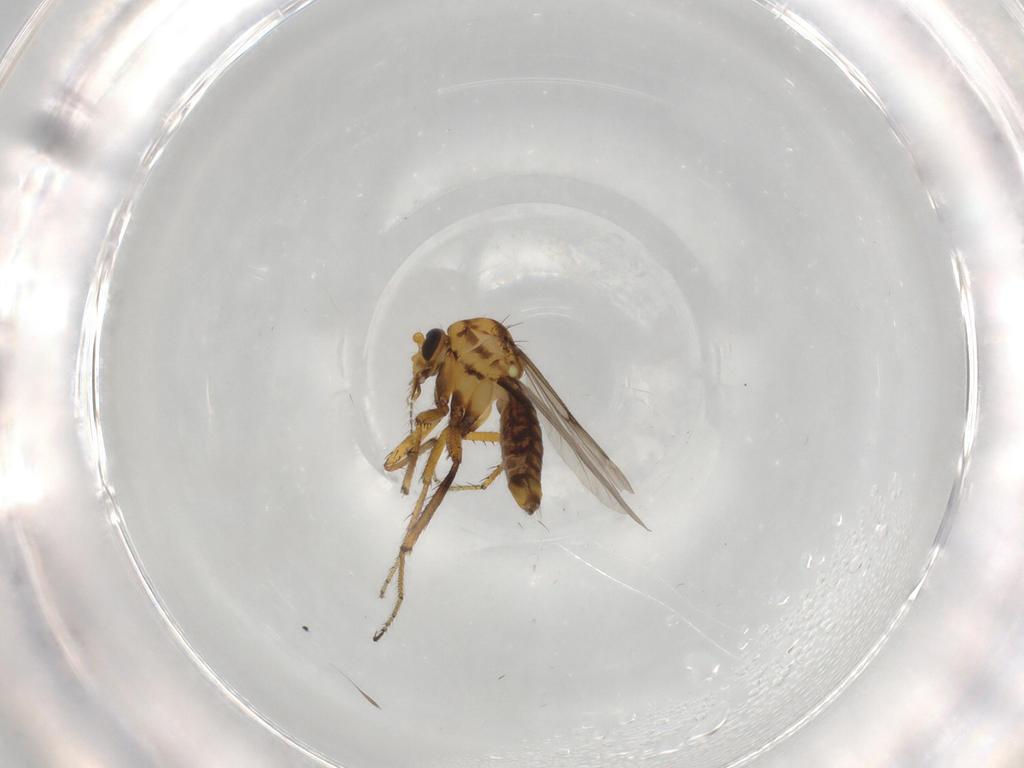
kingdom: Animalia
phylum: Arthropoda
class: Insecta
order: Diptera
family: Ceratopogonidae
